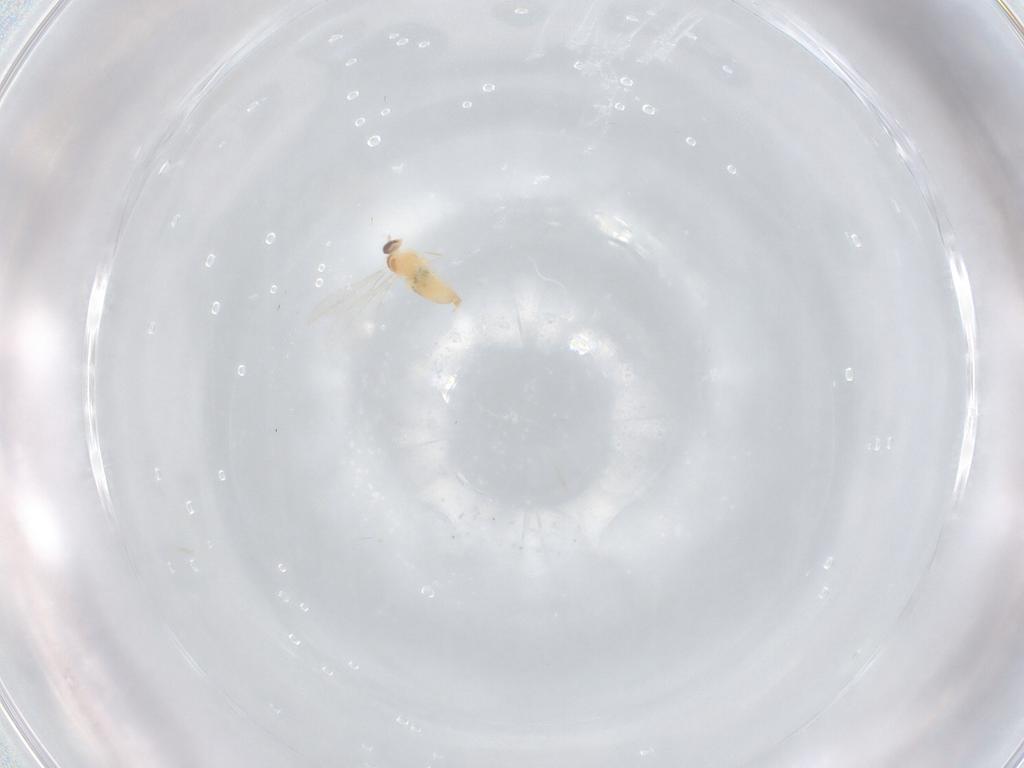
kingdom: Animalia
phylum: Arthropoda
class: Insecta
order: Diptera
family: Cecidomyiidae
